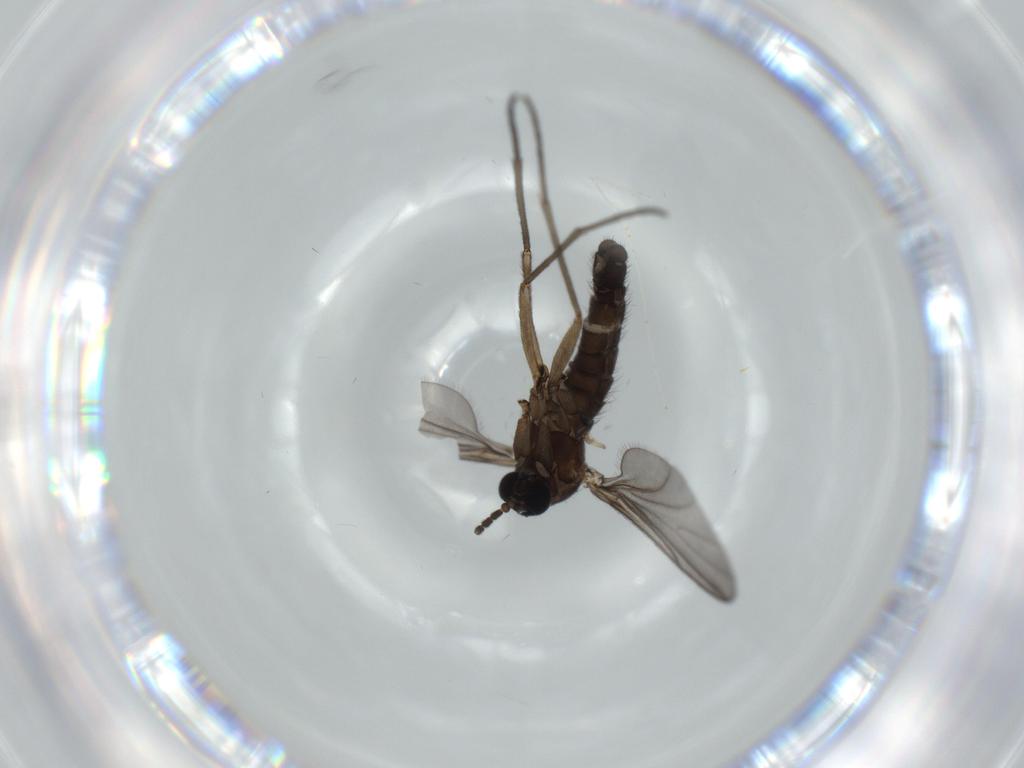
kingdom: Animalia
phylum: Arthropoda
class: Insecta
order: Diptera
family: Sciaridae
